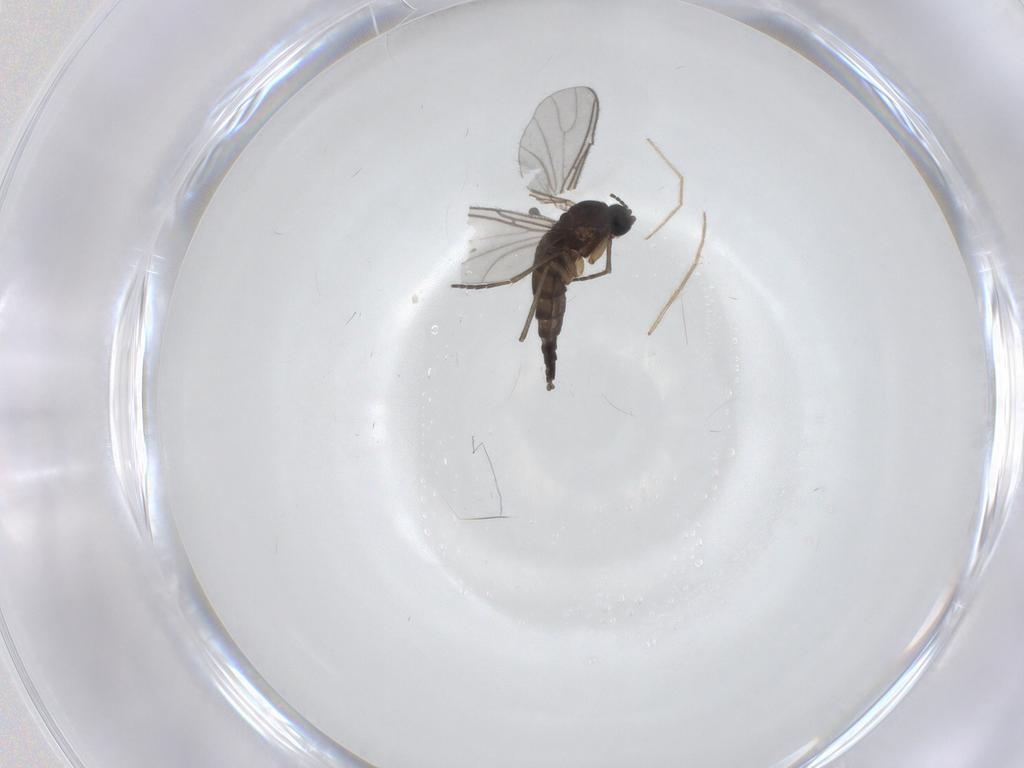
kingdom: Animalia
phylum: Arthropoda
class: Insecta
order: Diptera
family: Sciaridae
